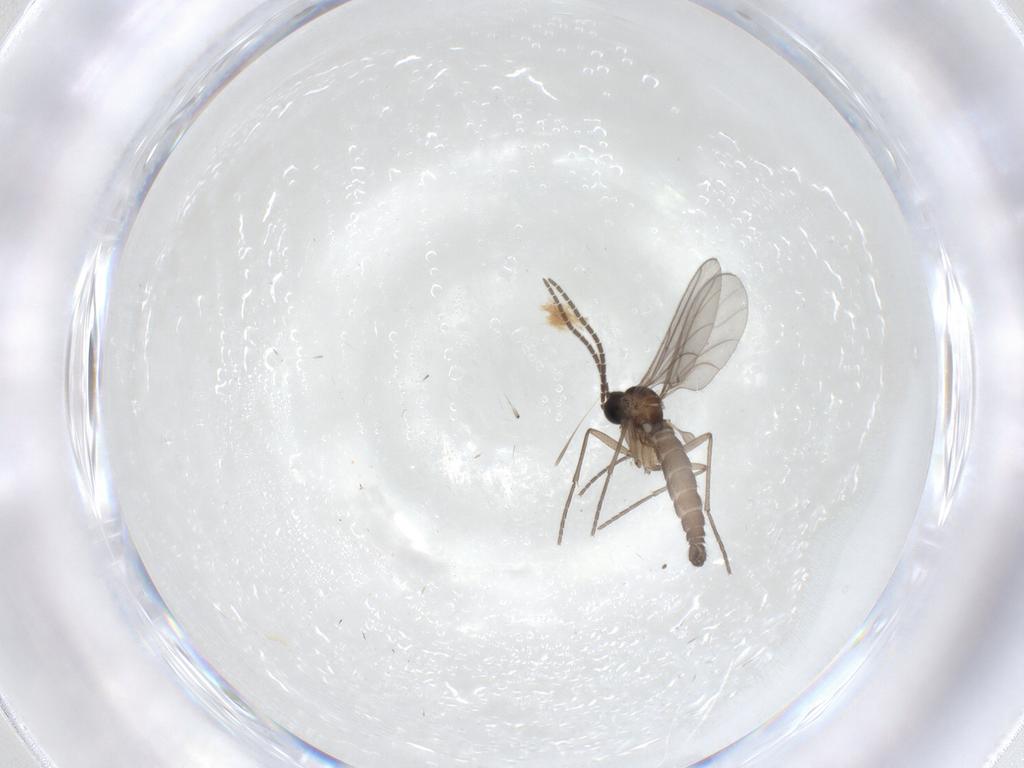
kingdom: Animalia
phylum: Arthropoda
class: Insecta
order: Diptera
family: Sciaridae
